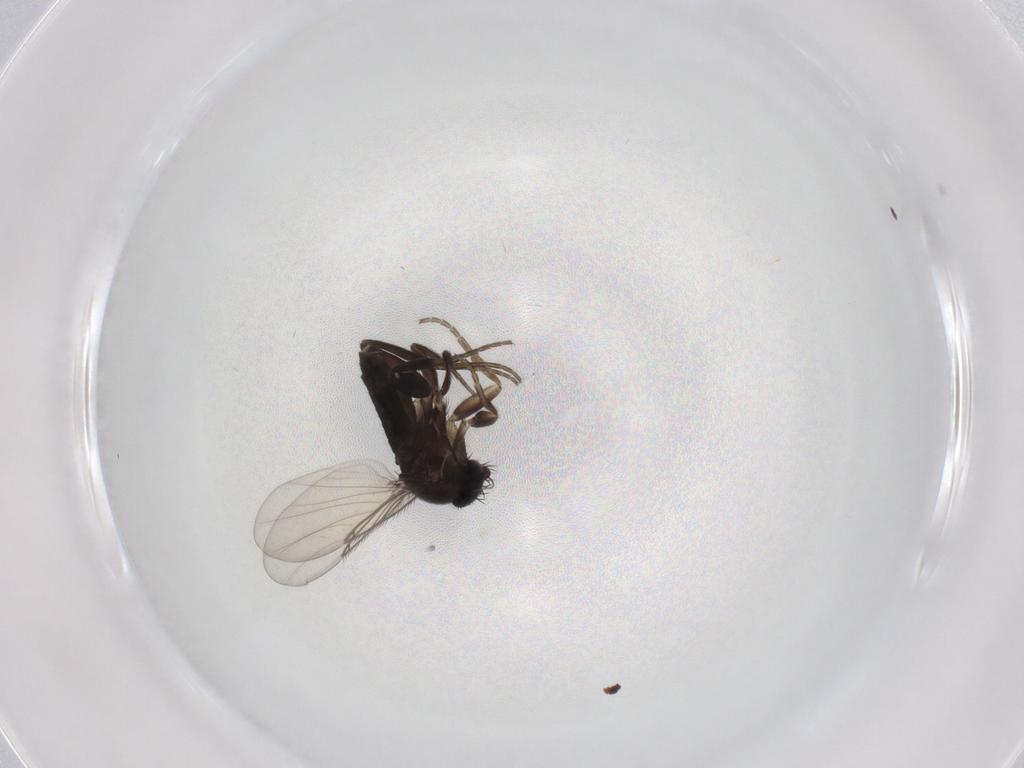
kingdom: Animalia
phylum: Arthropoda
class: Insecta
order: Diptera
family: Phoridae
